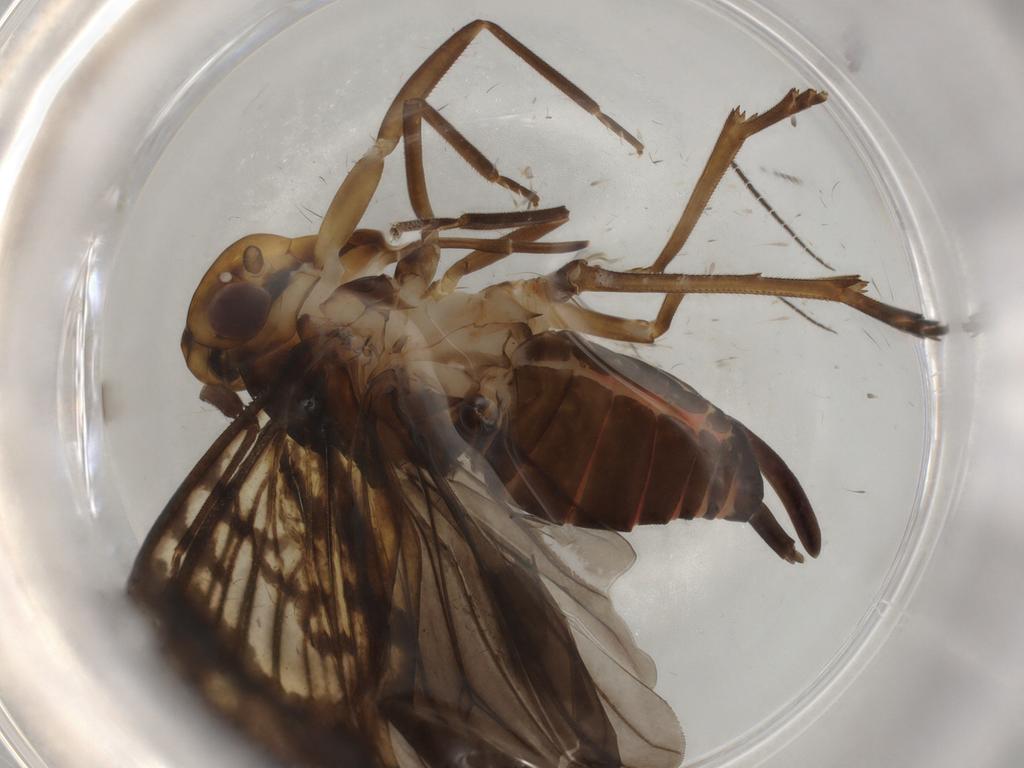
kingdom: Animalia
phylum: Arthropoda
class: Insecta
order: Hemiptera
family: Cixiidae
